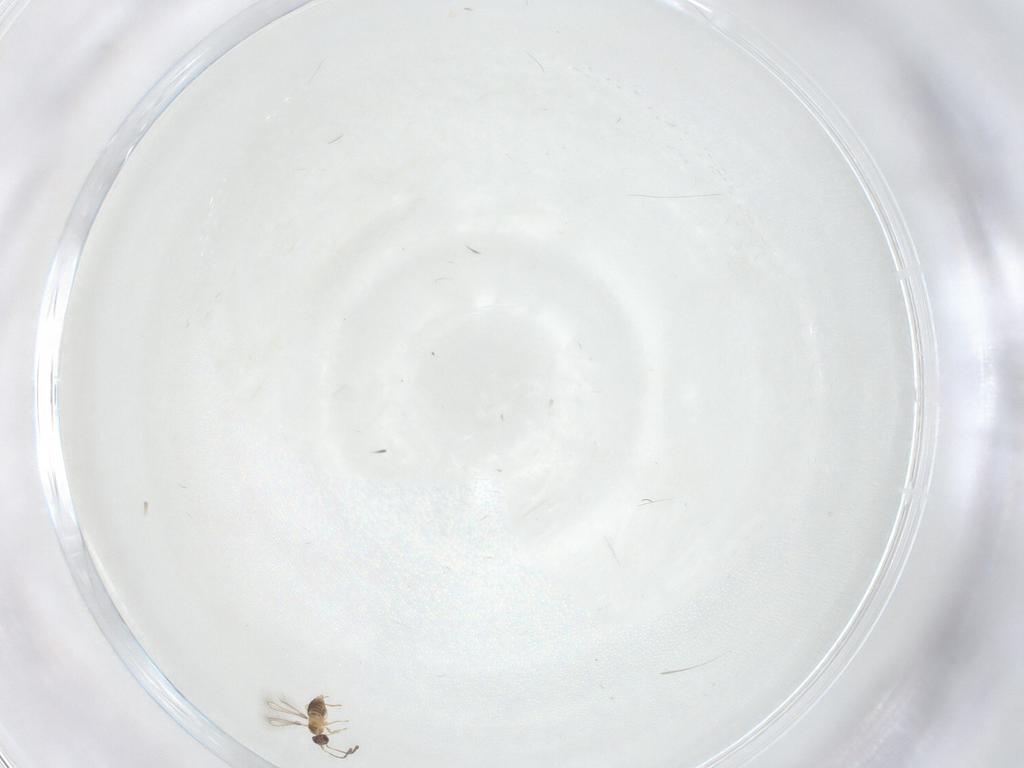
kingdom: Animalia
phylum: Arthropoda
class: Insecta
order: Hymenoptera
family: Mymaridae
